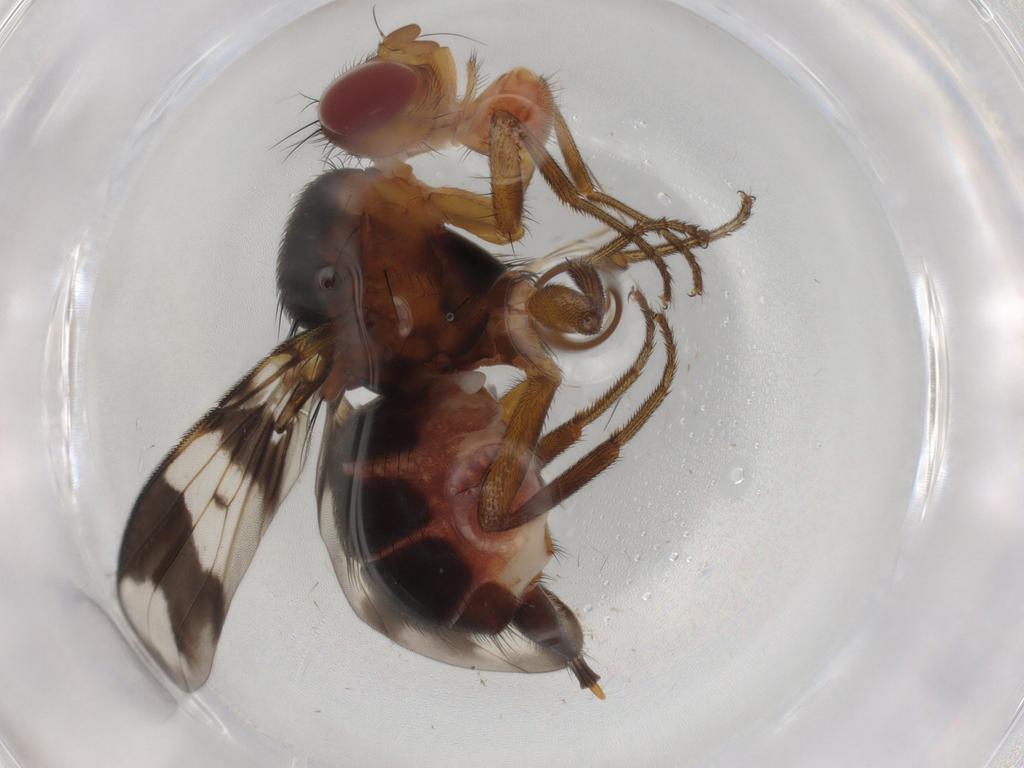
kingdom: Animalia
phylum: Arthropoda
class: Insecta
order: Diptera
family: Richardiidae
